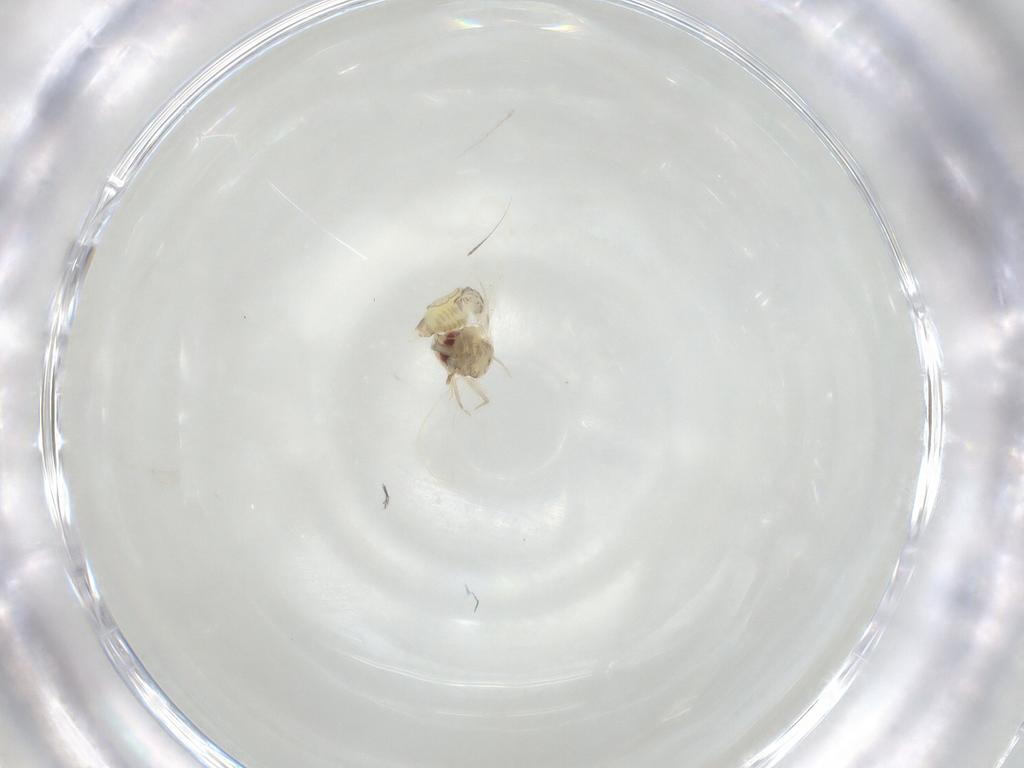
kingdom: Animalia
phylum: Arthropoda
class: Insecta
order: Hemiptera
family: Aleyrodidae
